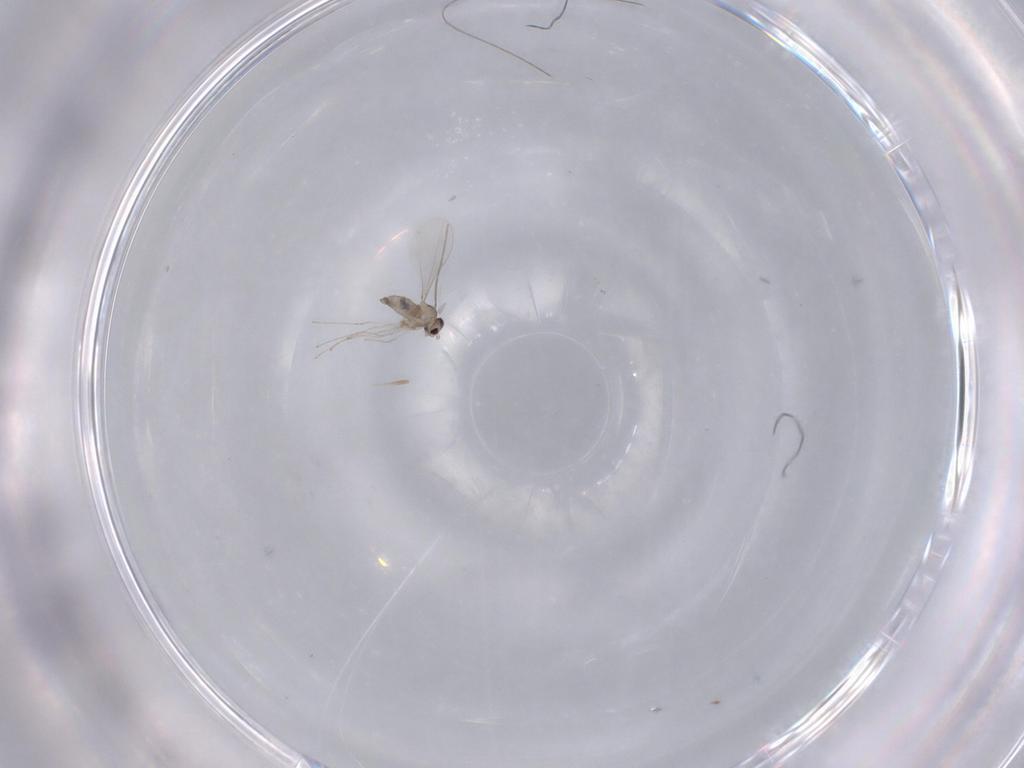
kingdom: Animalia
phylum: Arthropoda
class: Insecta
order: Diptera
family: Cecidomyiidae
